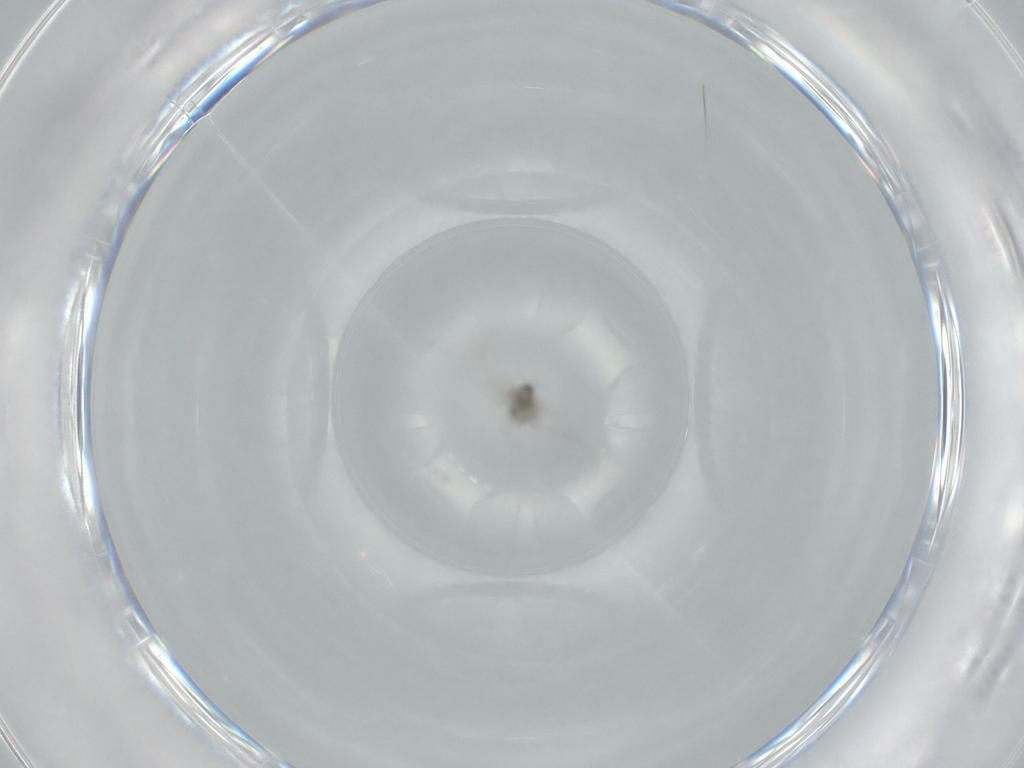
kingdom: Animalia
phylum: Arthropoda
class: Insecta
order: Diptera
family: Cecidomyiidae
